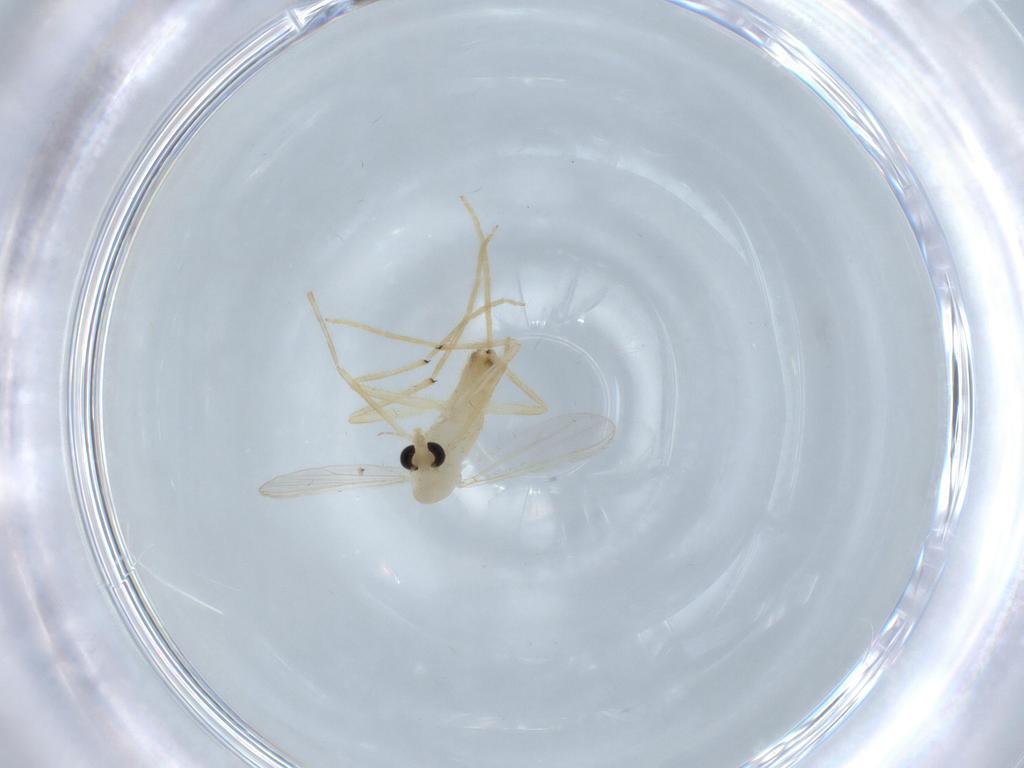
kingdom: Animalia
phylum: Arthropoda
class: Insecta
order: Diptera
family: Chironomidae
